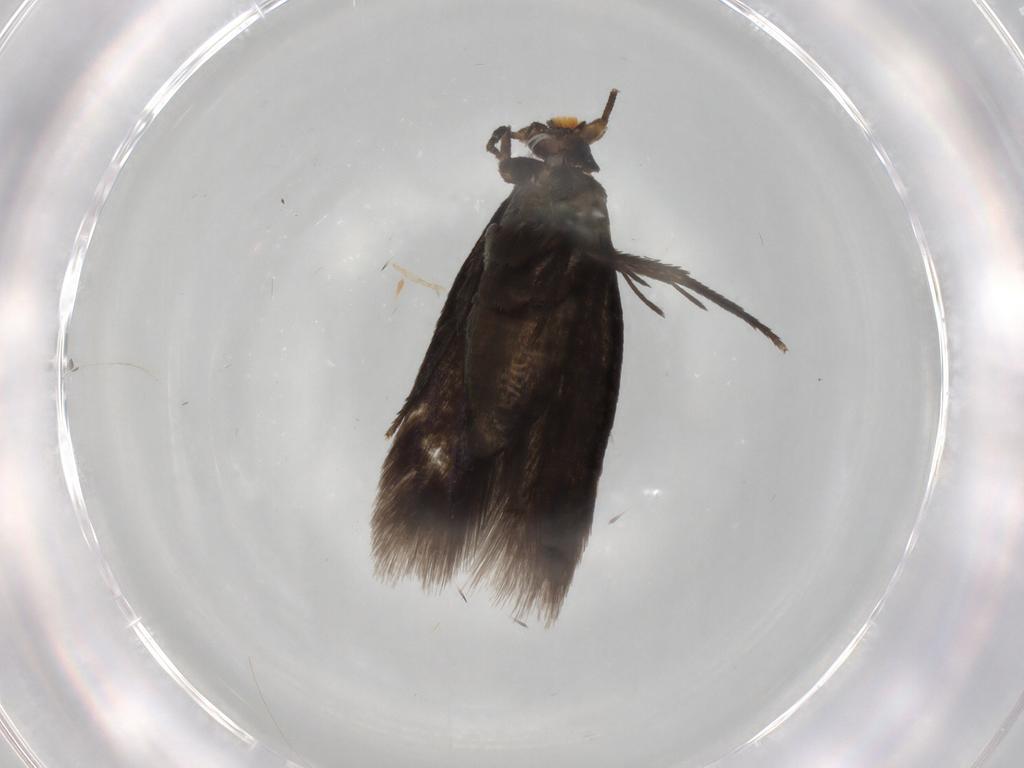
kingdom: Animalia
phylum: Arthropoda
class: Insecta
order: Lepidoptera
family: Nepticulidae
